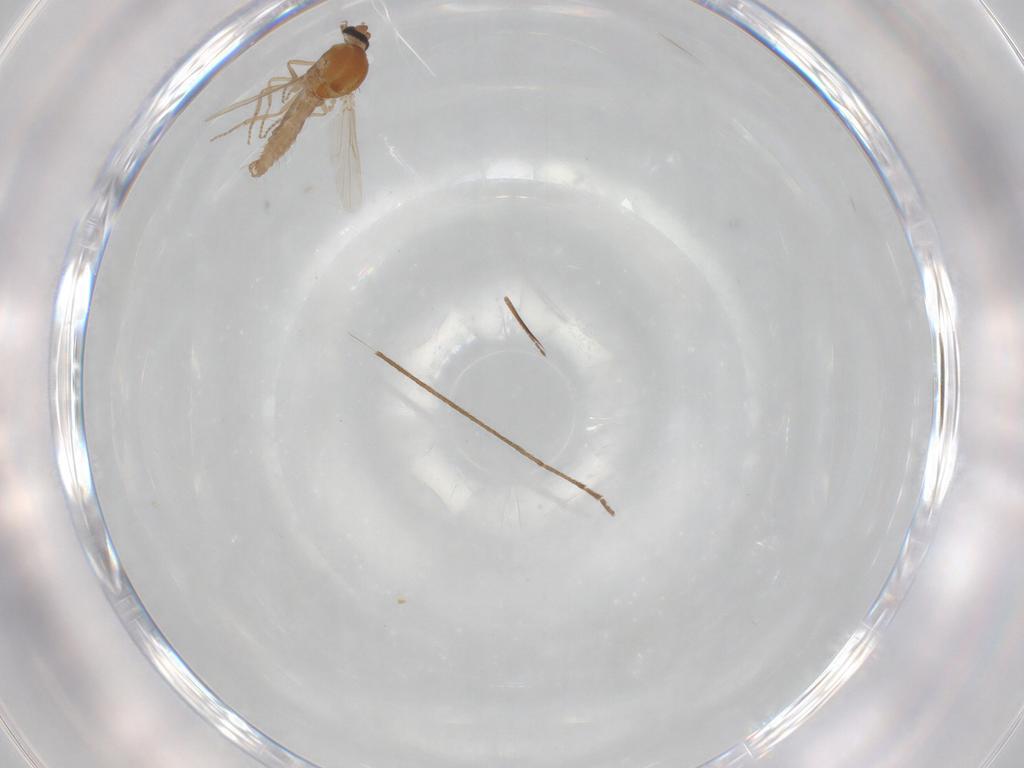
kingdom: Animalia
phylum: Arthropoda
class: Insecta
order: Diptera
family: Ceratopogonidae
